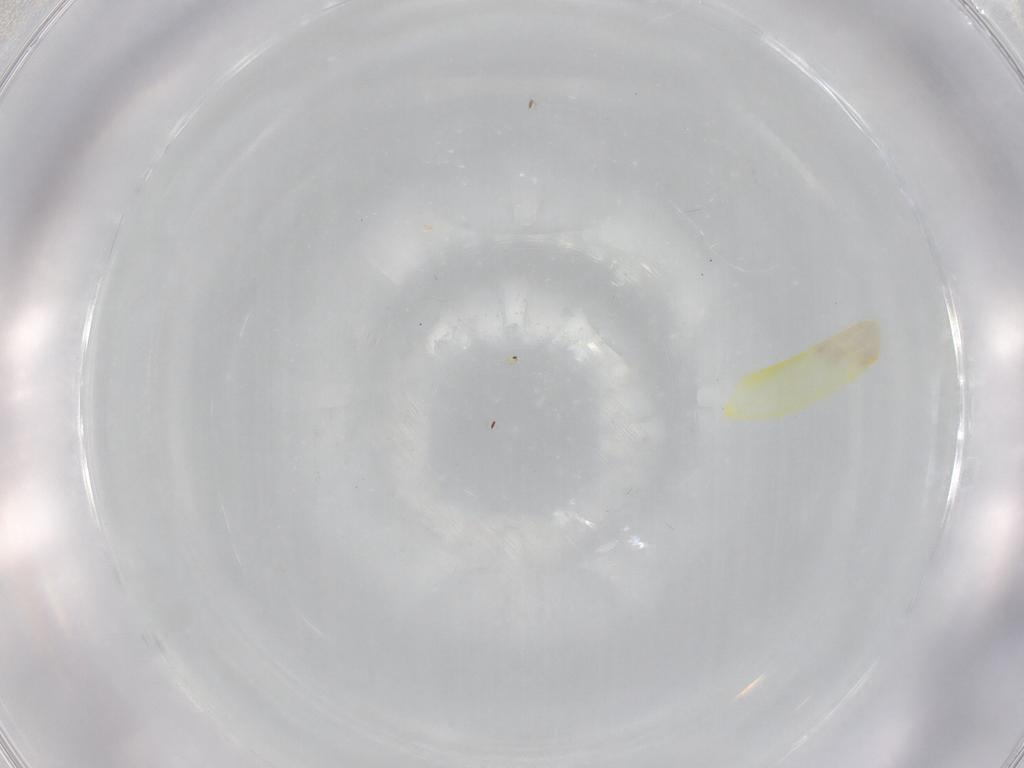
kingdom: Animalia
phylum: Arthropoda
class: Insecta
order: Hemiptera
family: Cicadellidae
